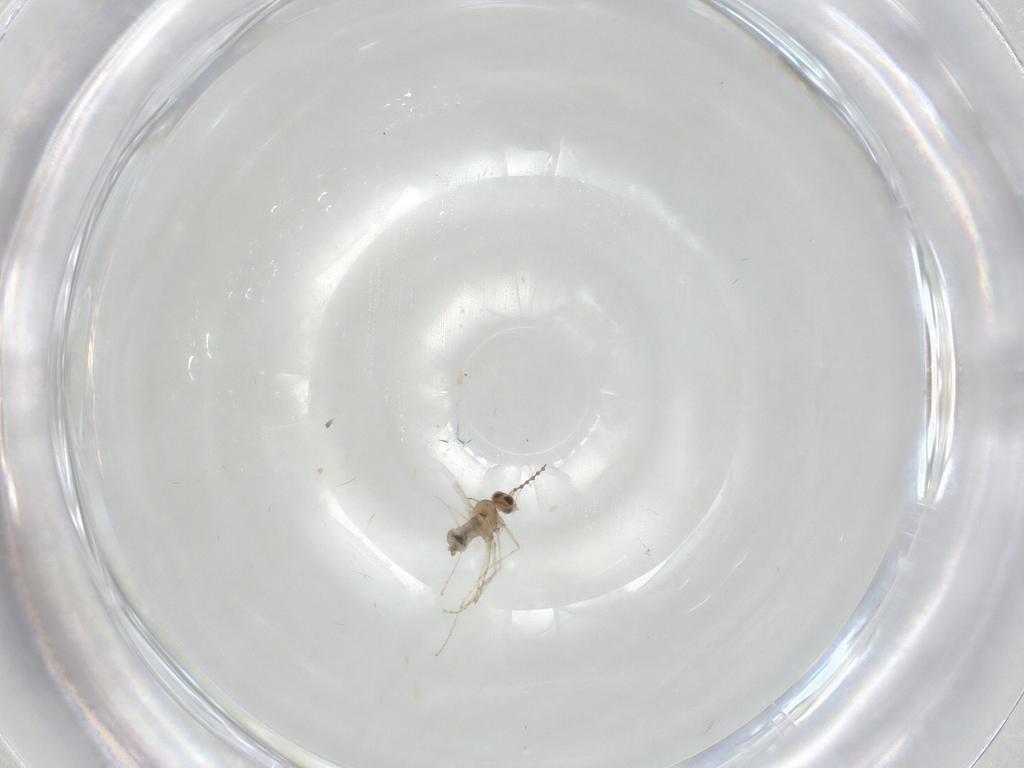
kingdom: Animalia
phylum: Arthropoda
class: Insecta
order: Diptera
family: Cecidomyiidae
